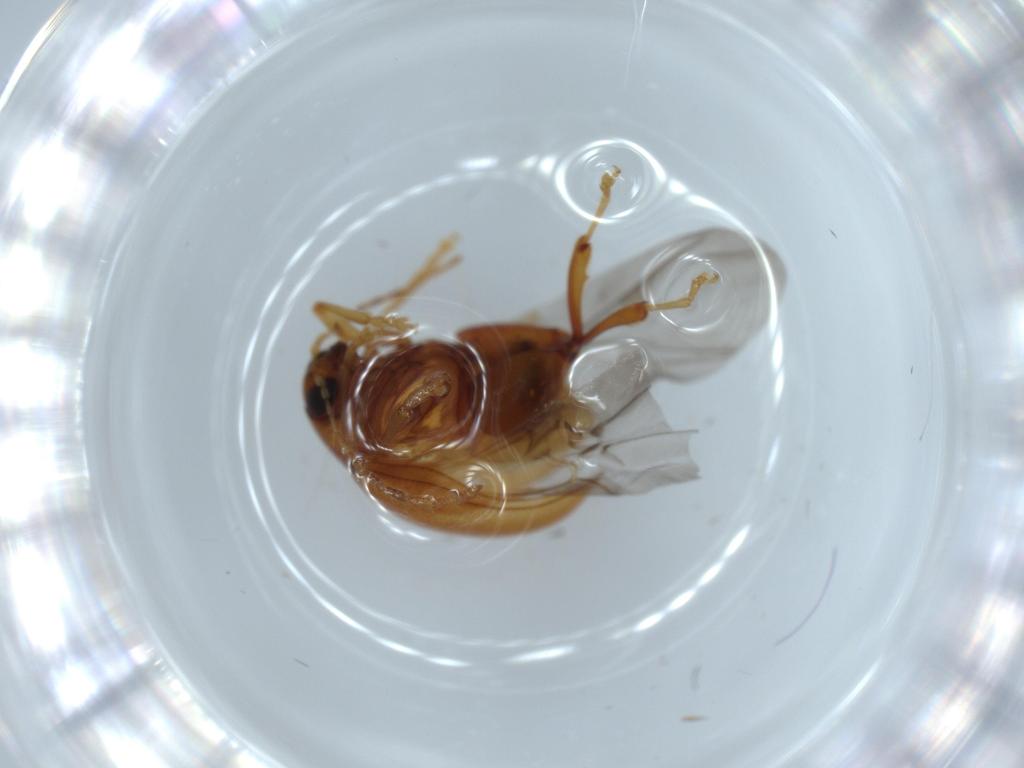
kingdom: Animalia
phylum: Arthropoda
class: Insecta
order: Coleoptera
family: Chrysomelidae
